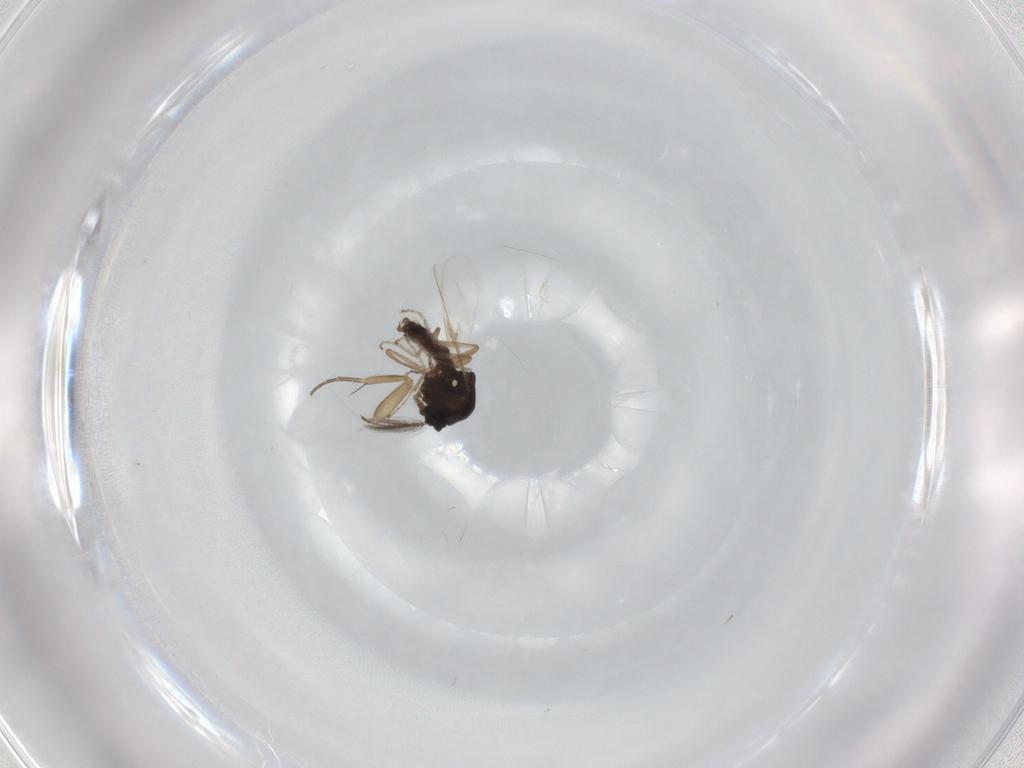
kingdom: Animalia
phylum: Arthropoda
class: Insecta
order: Diptera
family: Ceratopogonidae
